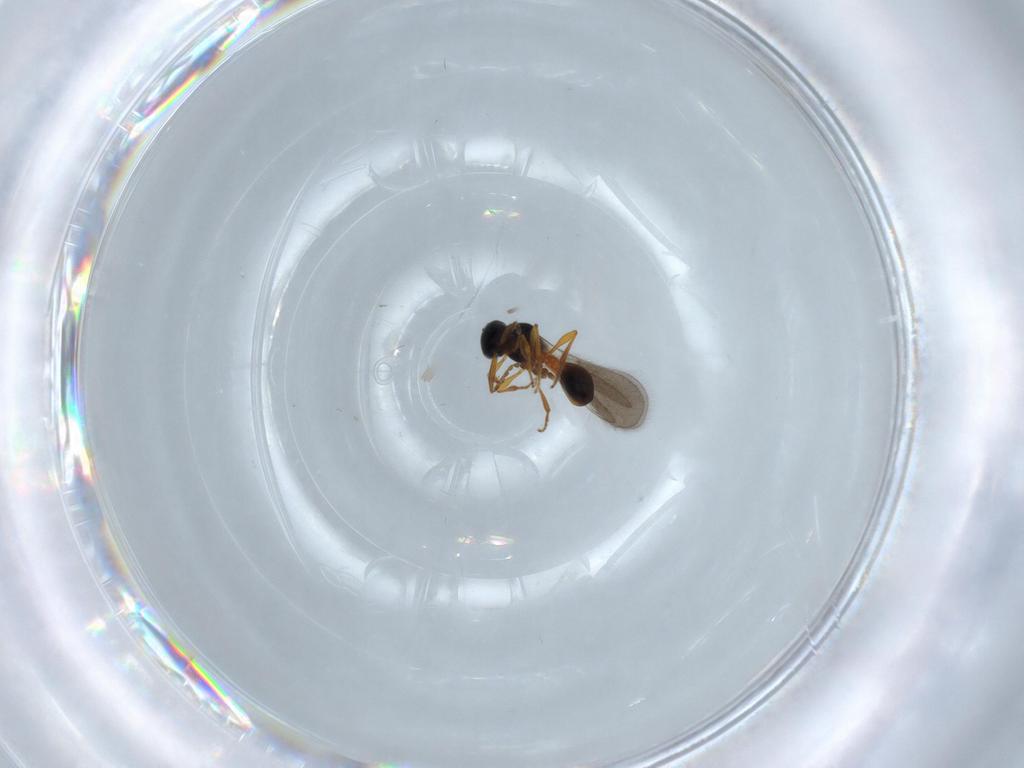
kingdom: Animalia
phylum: Arthropoda
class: Insecta
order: Hymenoptera
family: Platygastridae
